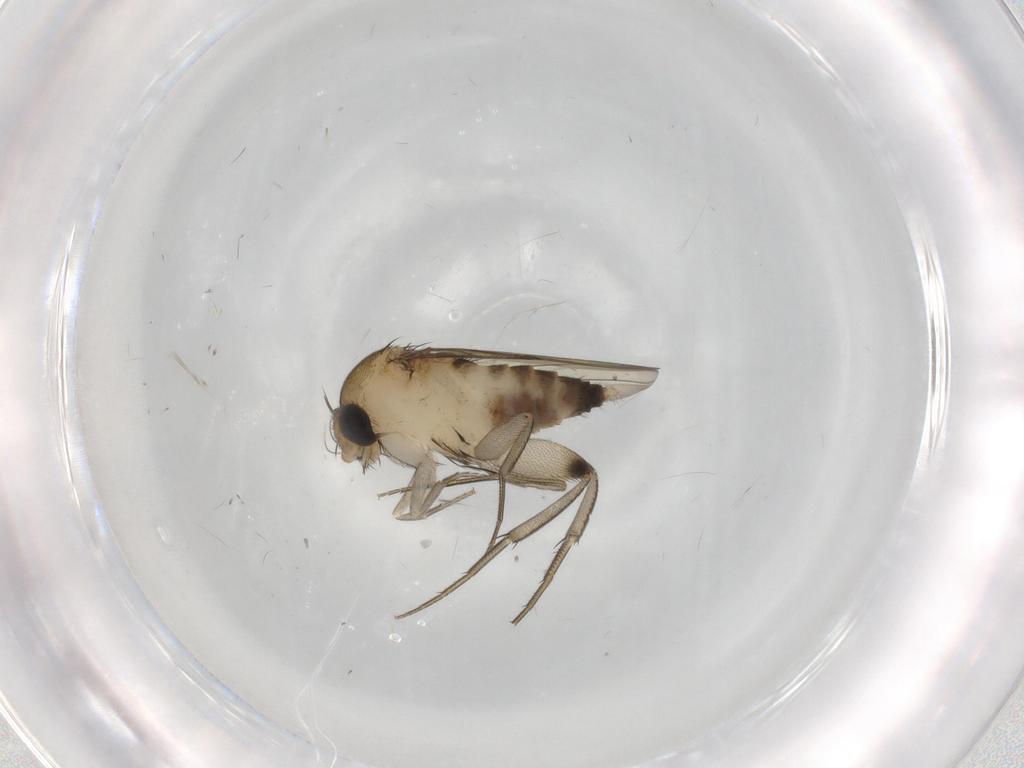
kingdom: Animalia
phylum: Arthropoda
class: Insecta
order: Diptera
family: Phoridae
